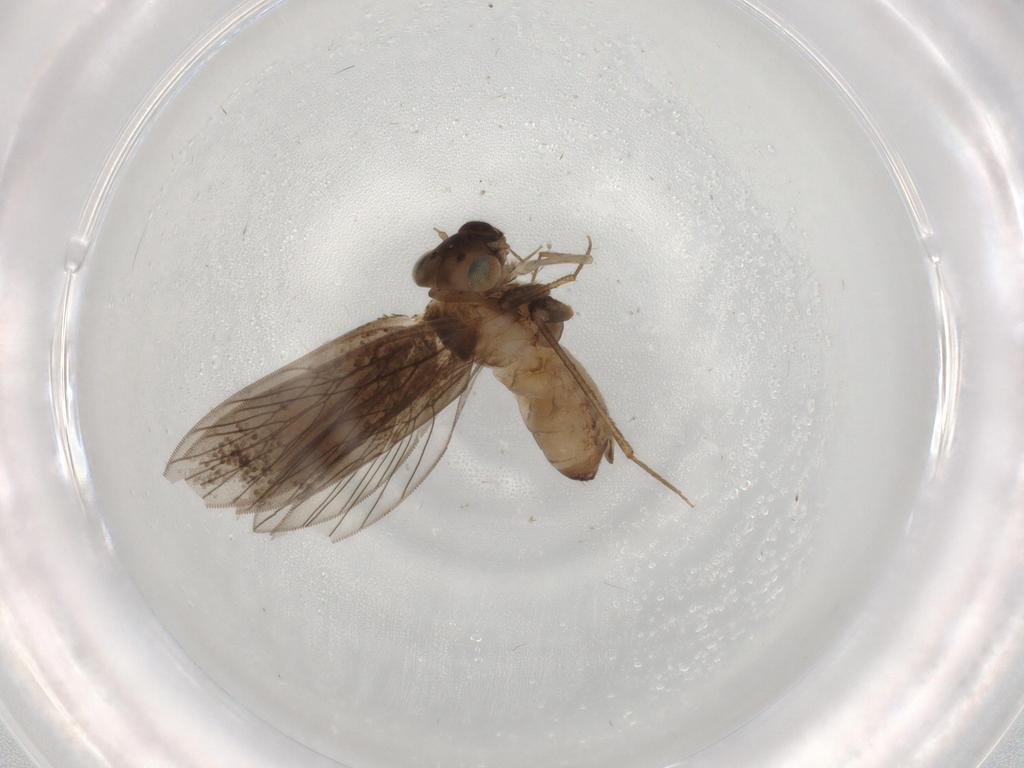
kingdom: Animalia
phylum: Arthropoda
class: Insecta
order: Psocodea
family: Lepidopsocidae
